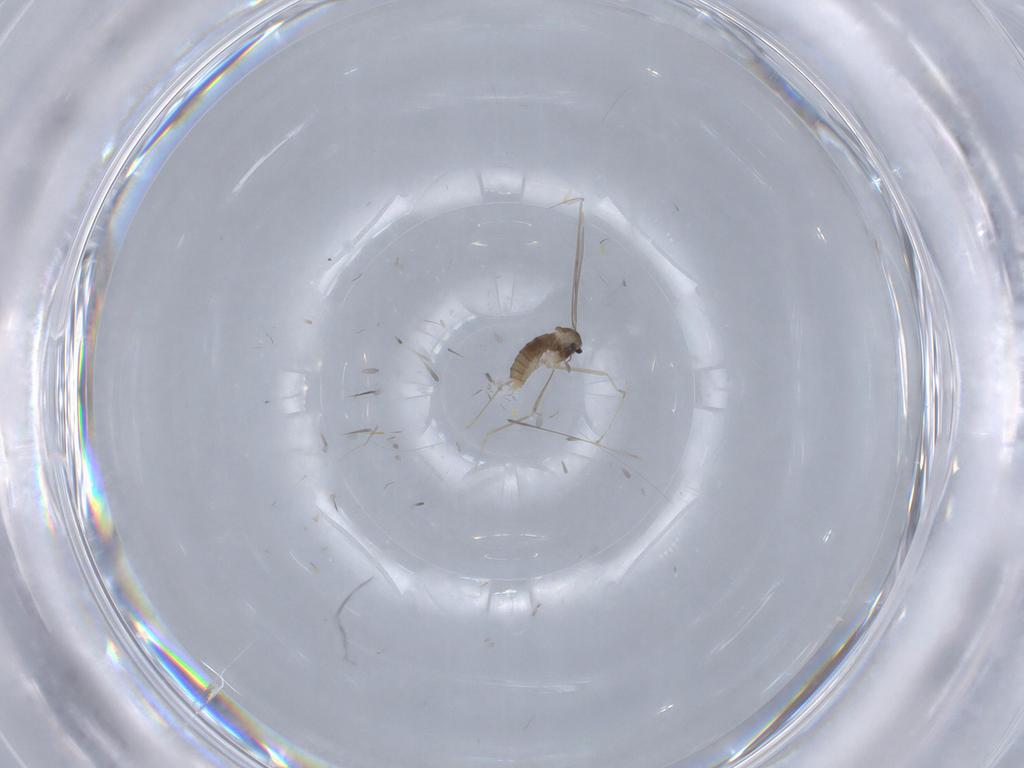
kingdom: Animalia
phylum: Arthropoda
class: Insecta
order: Diptera
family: Cecidomyiidae
